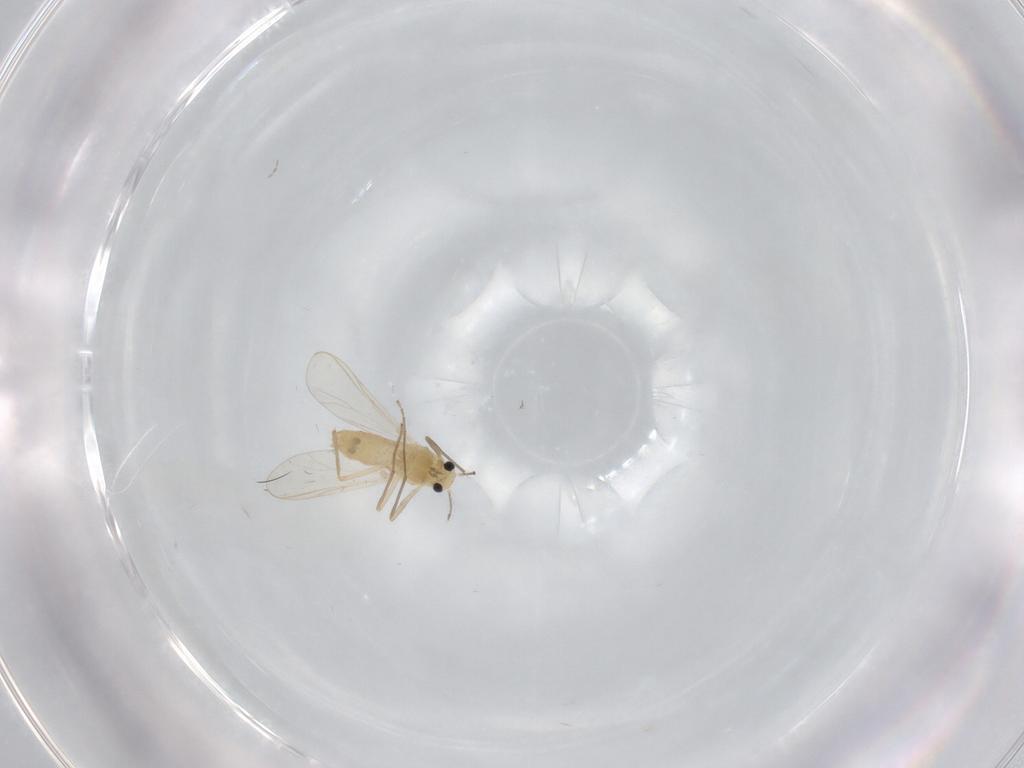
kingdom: Animalia
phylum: Arthropoda
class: Insecta
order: Diptera
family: Chironomidae
